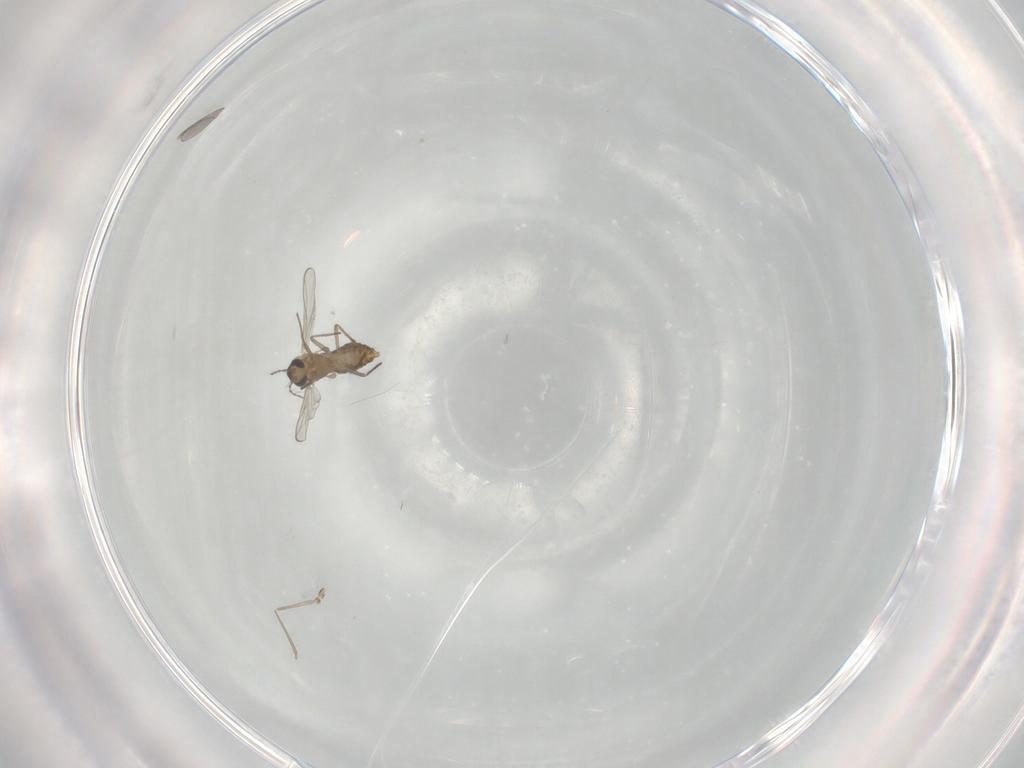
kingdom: Animalia
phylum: Arthropoda
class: Insecta
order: Diptera
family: Chironomidae
